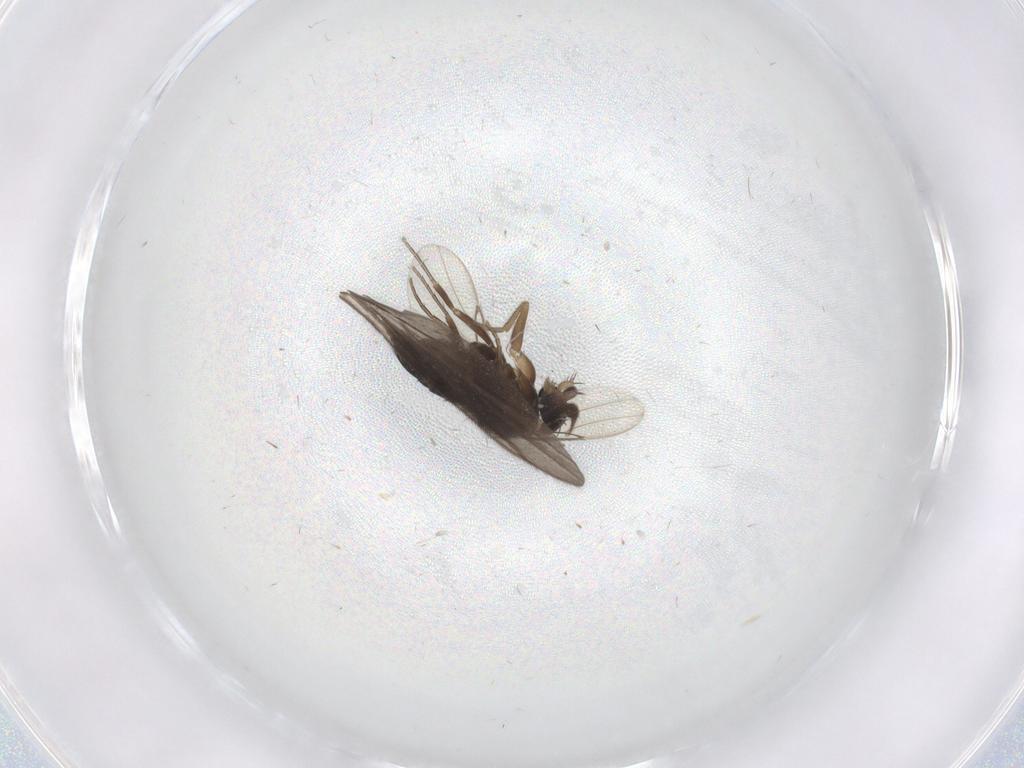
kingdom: Animalia
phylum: Arthropoda
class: Insecta
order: Diptera
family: Phoridae
